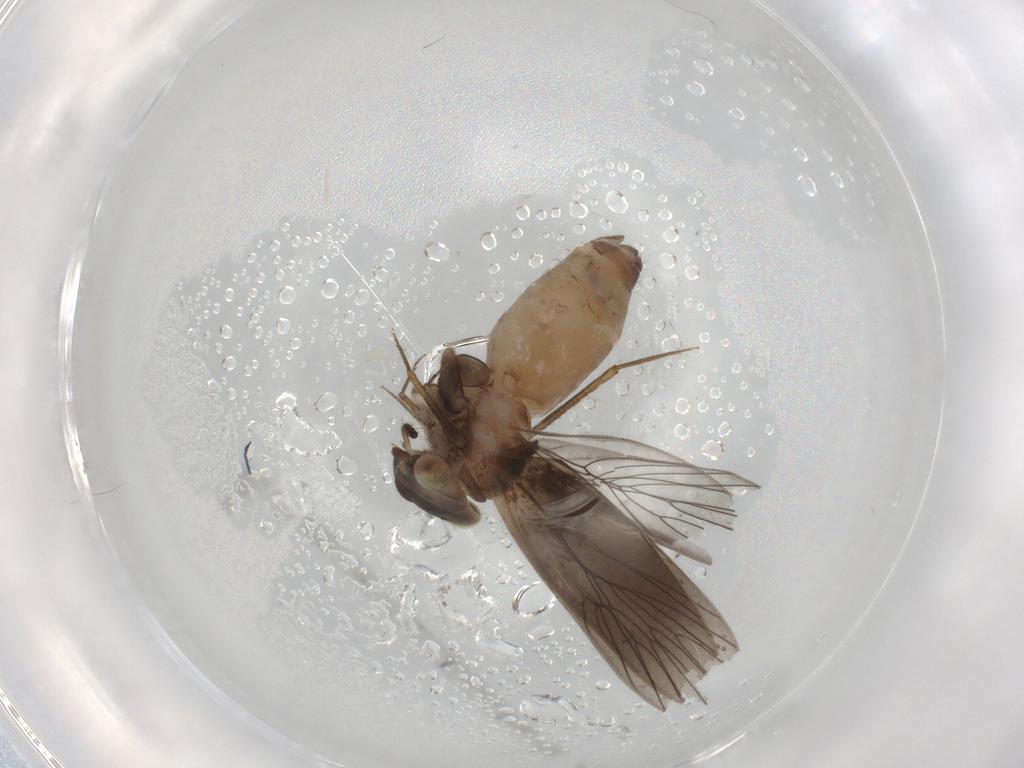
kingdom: Animalia
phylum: Arthropoda
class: Insecta
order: Psocodea
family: Lepidopsocidae
